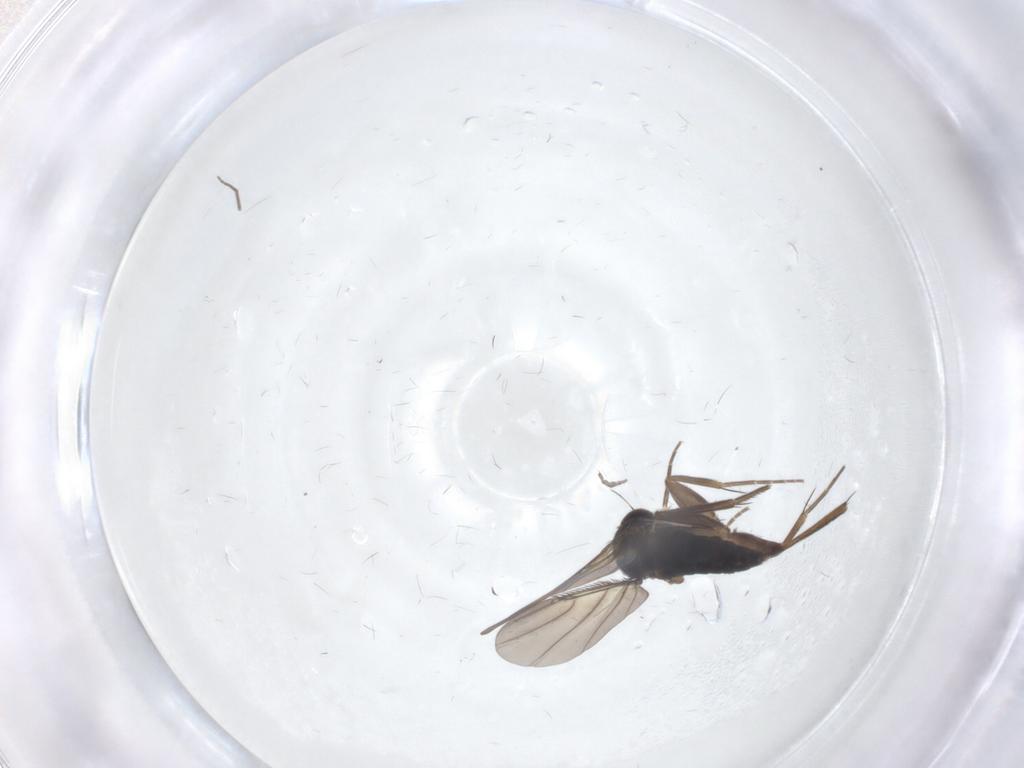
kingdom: Animalia
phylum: Arthropoda
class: Insecta
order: Diptera
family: Phoridae
